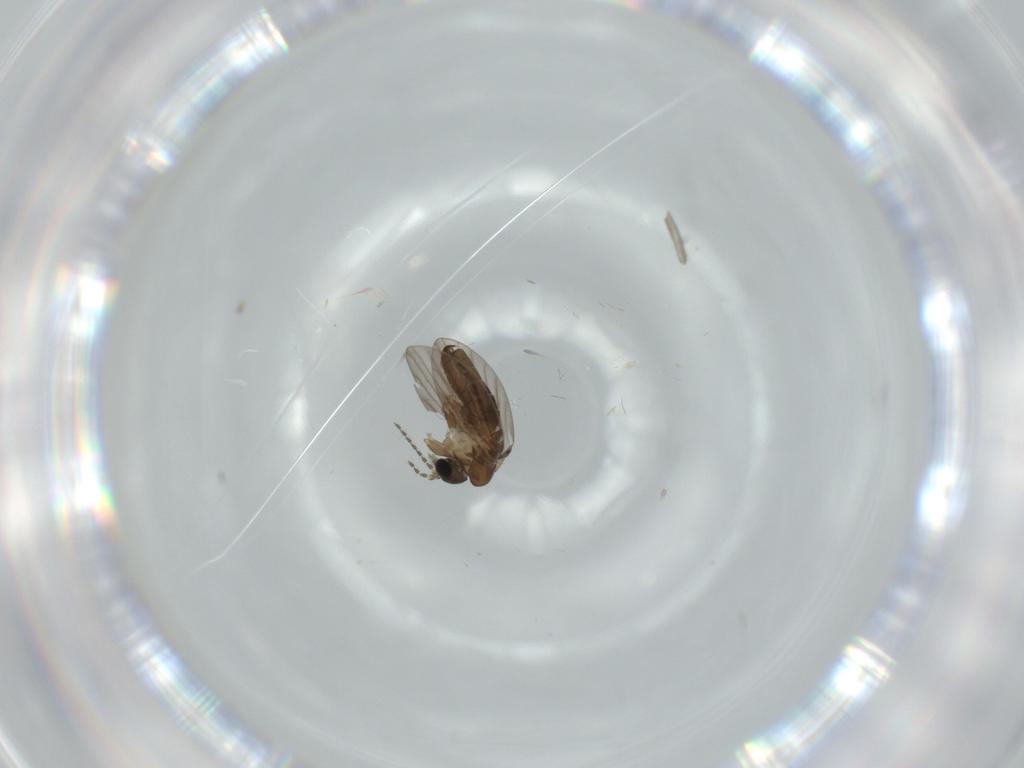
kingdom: Animalia
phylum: Arthropoda
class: Insecta
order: Diptera
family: Psychodidae
